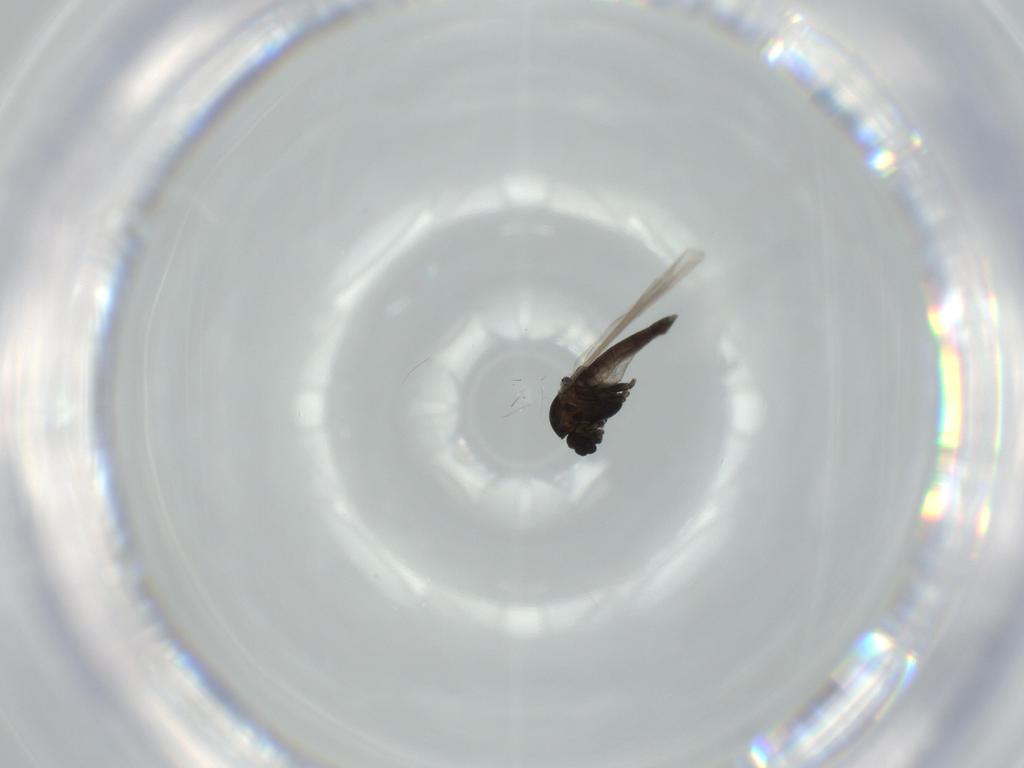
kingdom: Animalia
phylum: Arthropoda
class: Insecta
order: Diptera
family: Chironomidae
